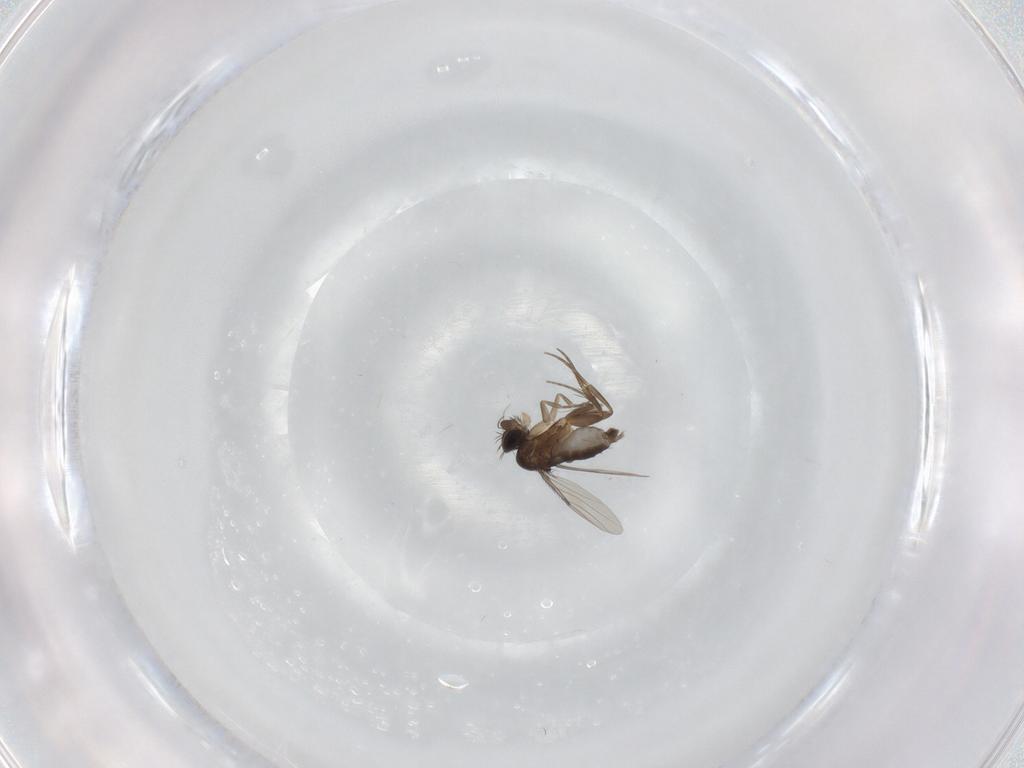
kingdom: Animalia
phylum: Arthropoda
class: Insecta
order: Diptera
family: Phoridae
